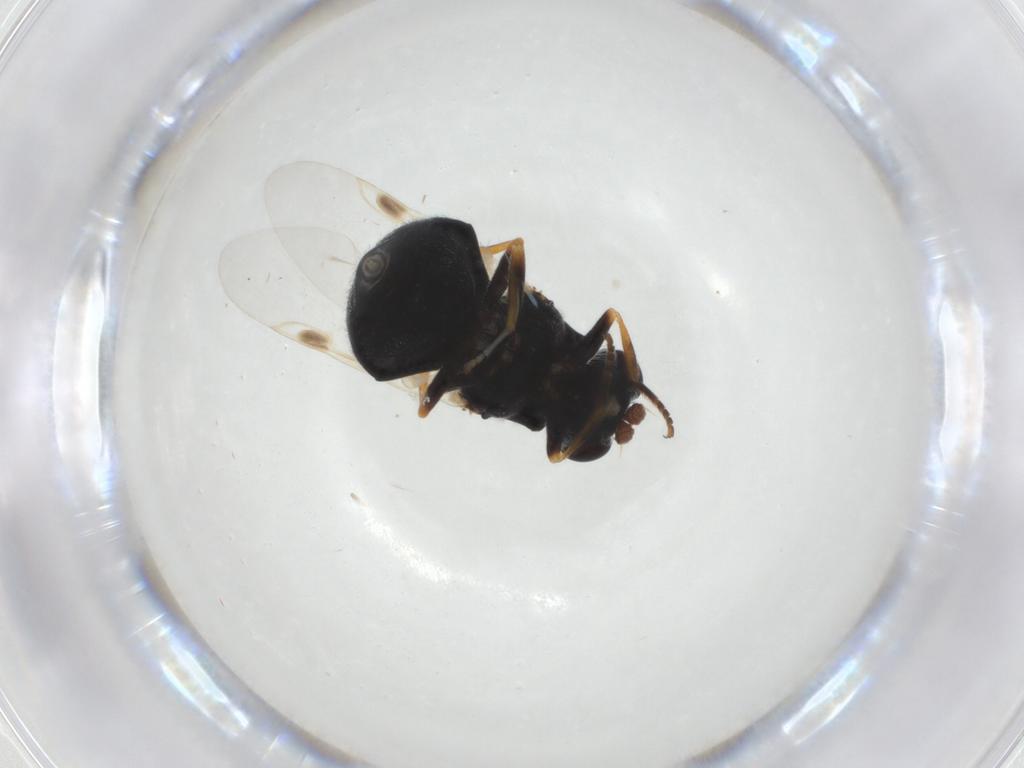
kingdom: Animalia
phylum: Arthropoda
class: Insecta
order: Diptera
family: Stratiomyidae
